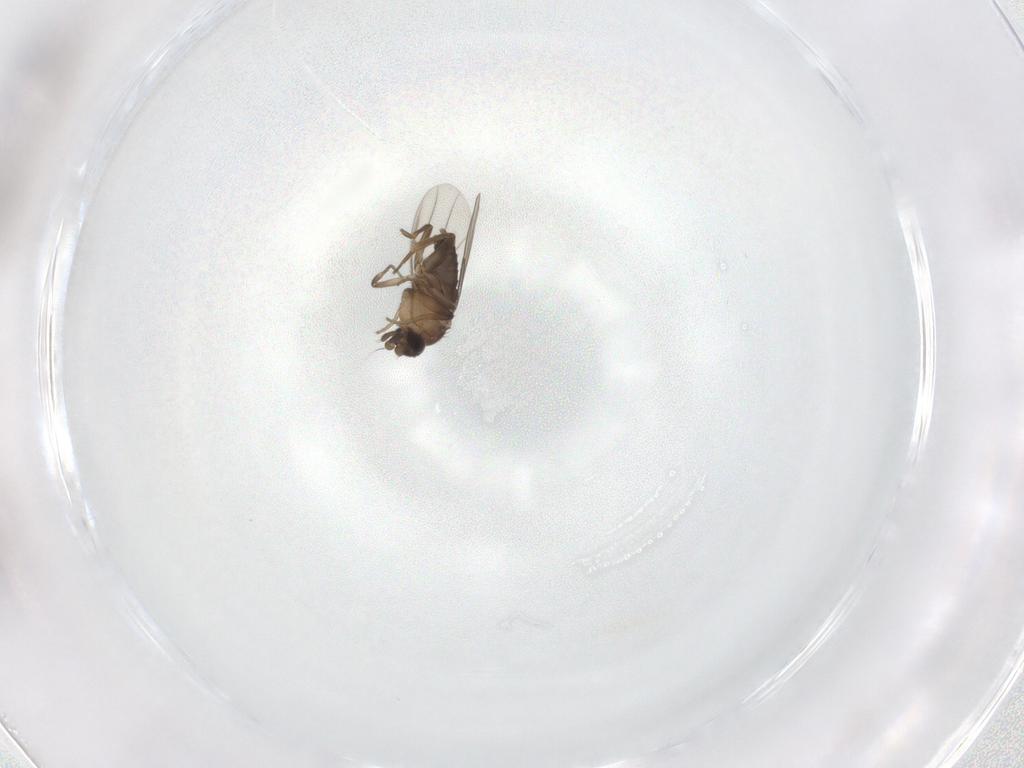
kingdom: Animalia
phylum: Arthropoda
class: Insecta
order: Diptera
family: Phoridae
